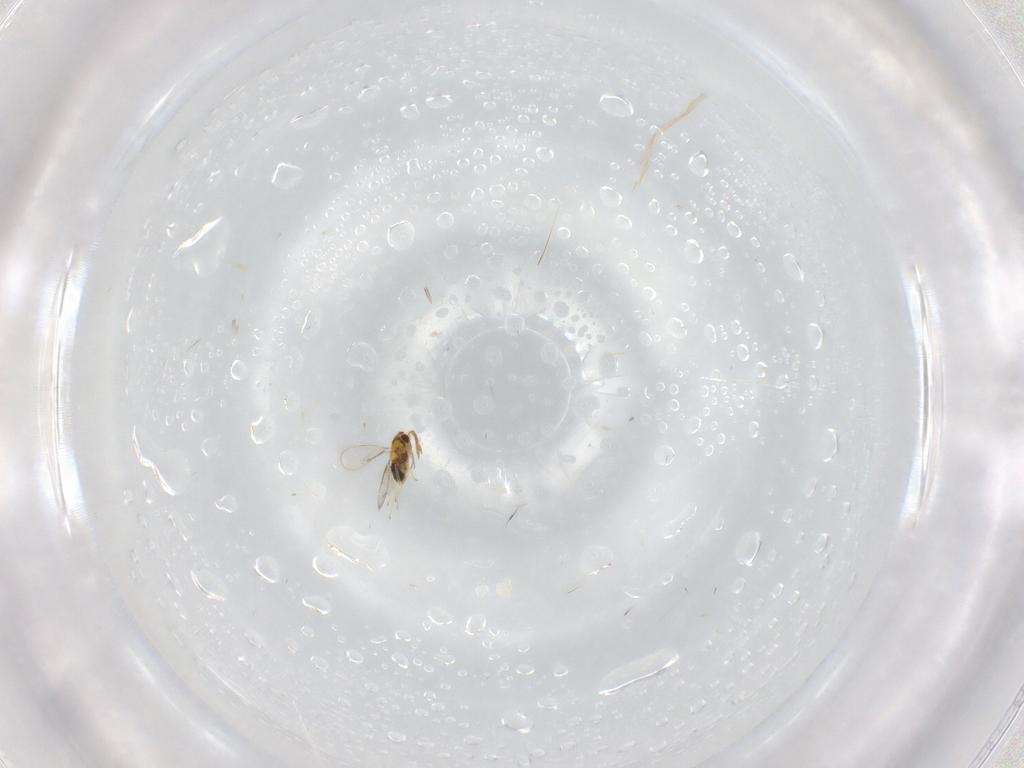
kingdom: Animalia
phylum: Arthropoda
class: Insecta
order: Hymenoptera
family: Aphelinidae
